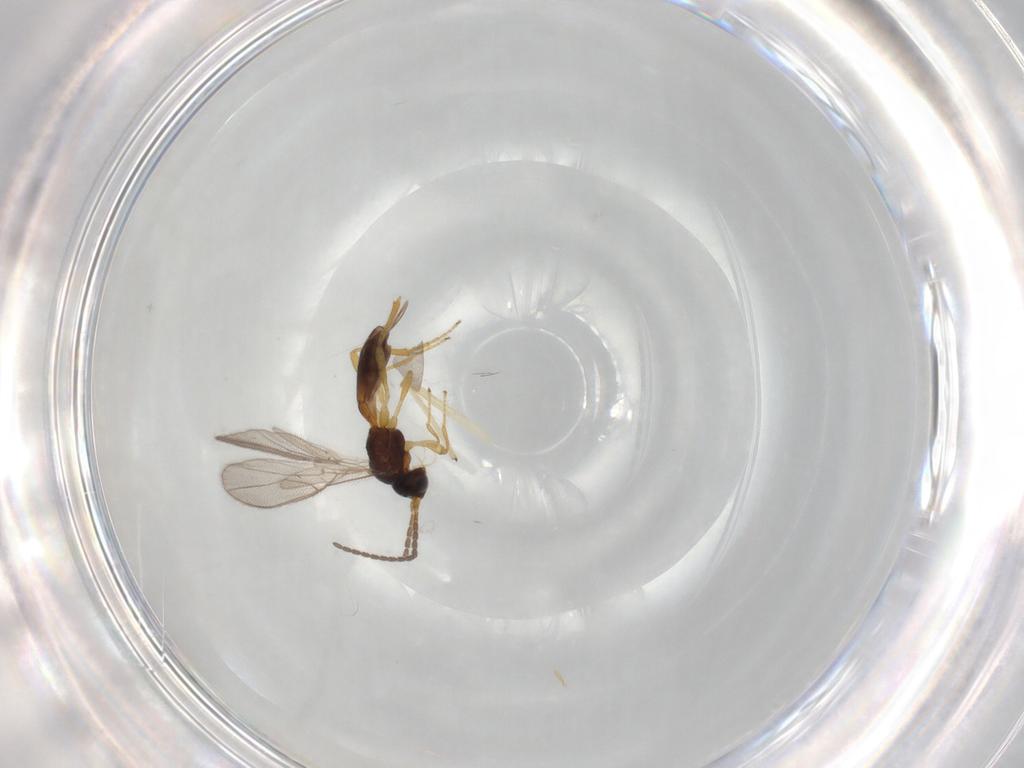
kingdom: Animalia
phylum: Arthropoda
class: Insecta
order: Hymenoptera
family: Braconidae
